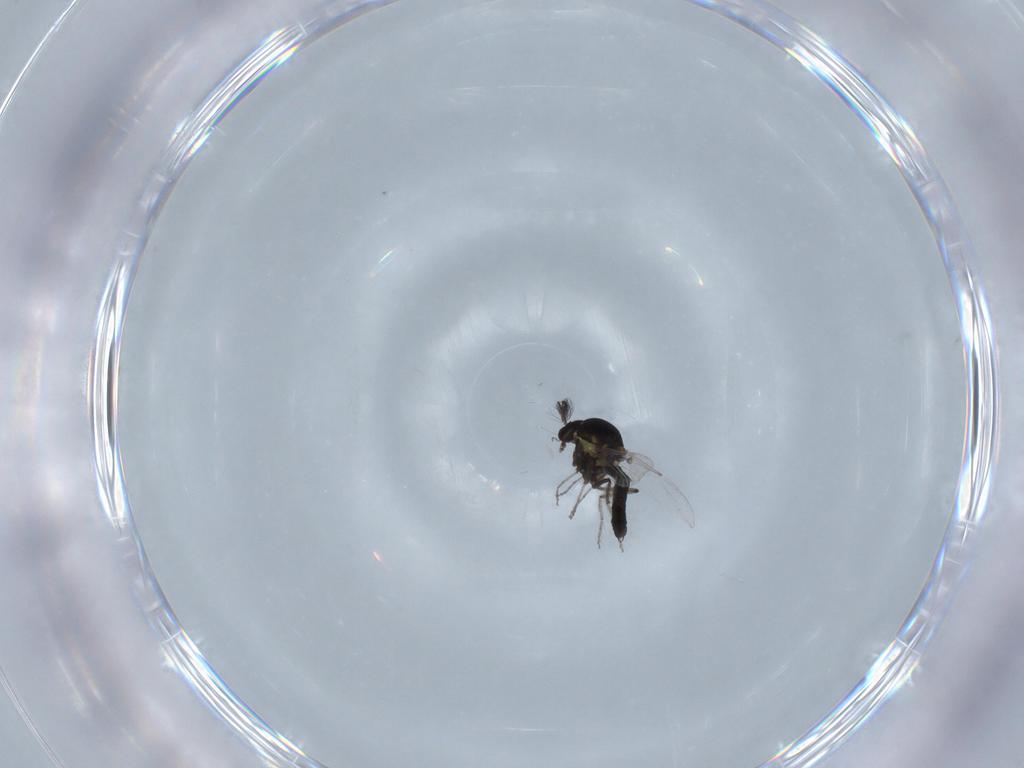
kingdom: Animalia
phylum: Arthropoda
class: Insecta
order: Diptera
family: Ceratopogonidae
